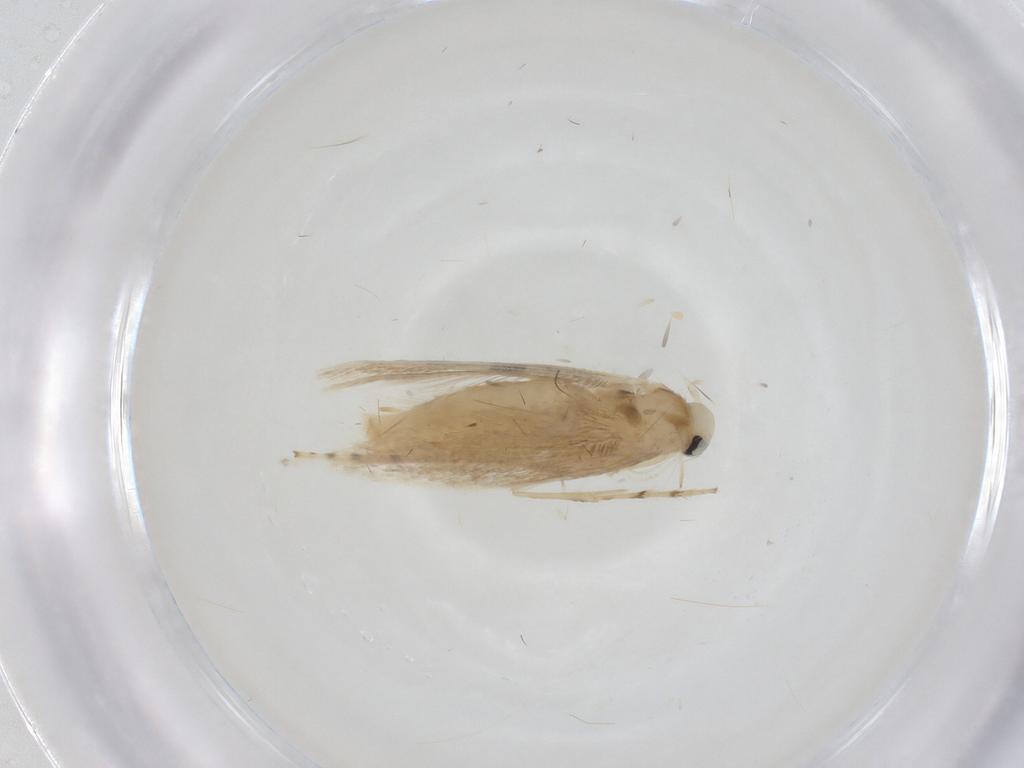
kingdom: Animalia
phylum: Arthropoda
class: Insecta
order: Lepidoptera
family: Gracillariidae
